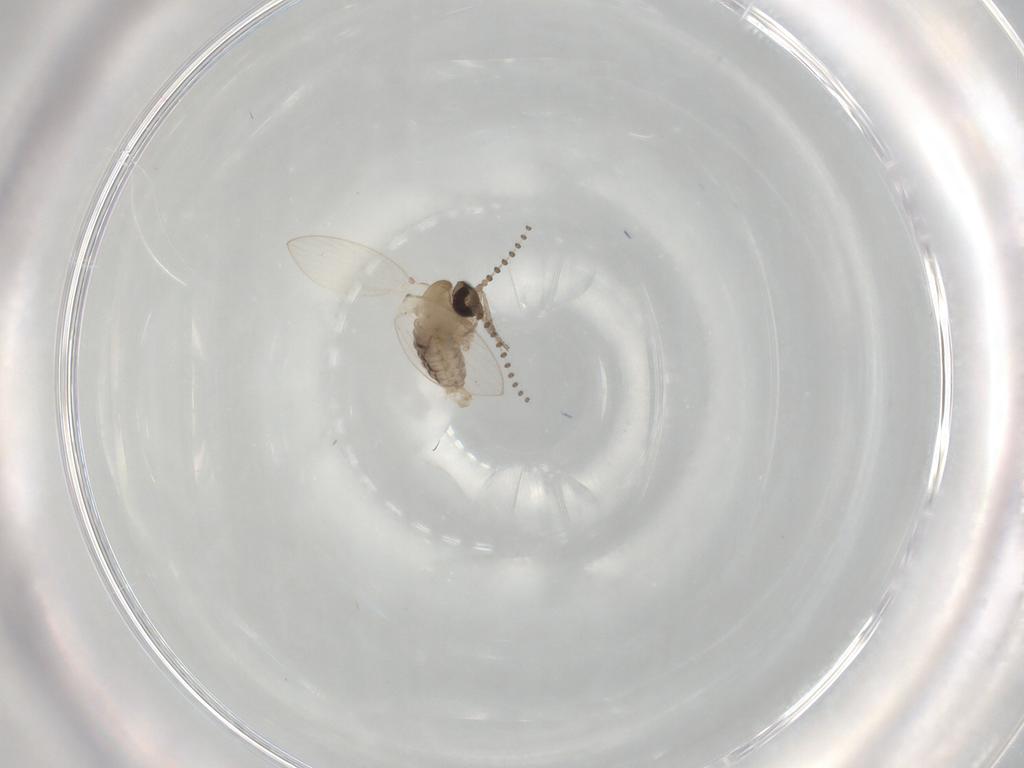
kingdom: Animalia
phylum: Arthropoda
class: Insecta
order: Diptera
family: Psychodidae
